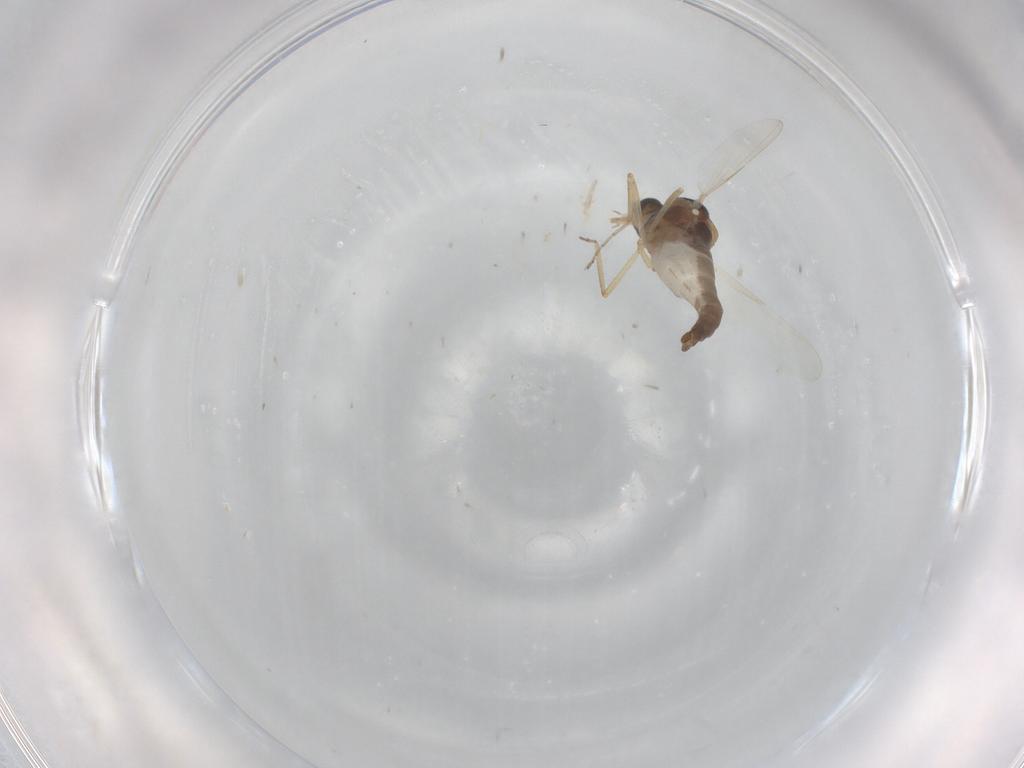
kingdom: Animalia
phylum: Arthropoda
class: Insecta
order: Diptera
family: Ceratopogonidae
